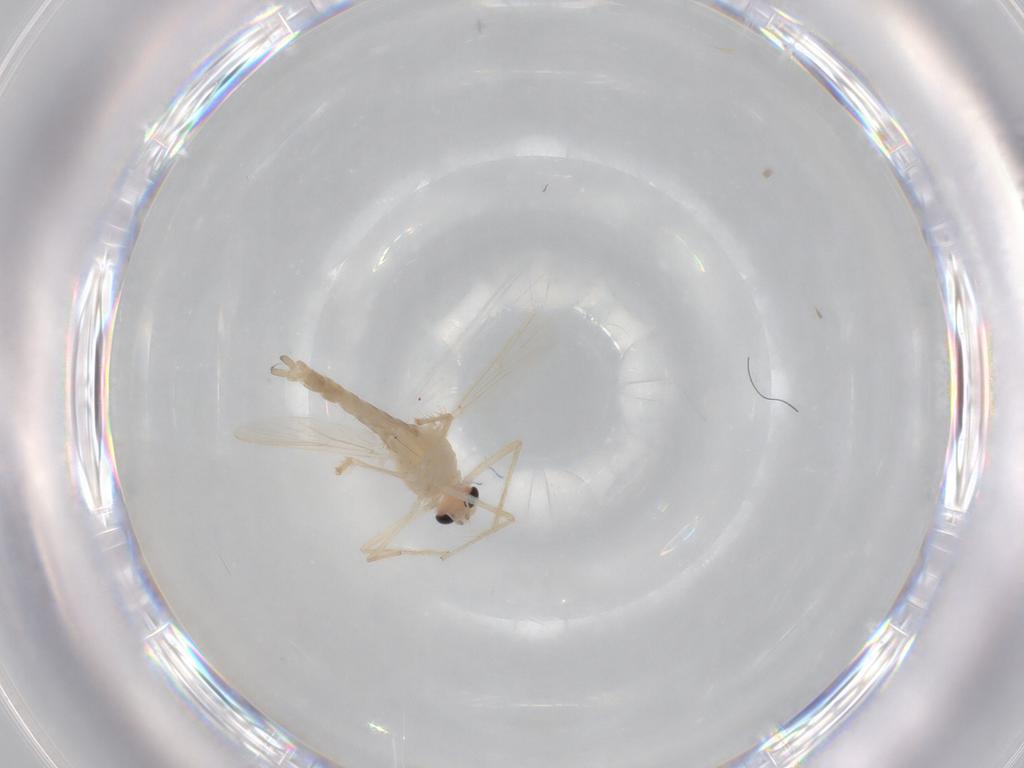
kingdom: Animalia
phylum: Arthropoda
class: Insecta
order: Diptera
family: Chironomidae
